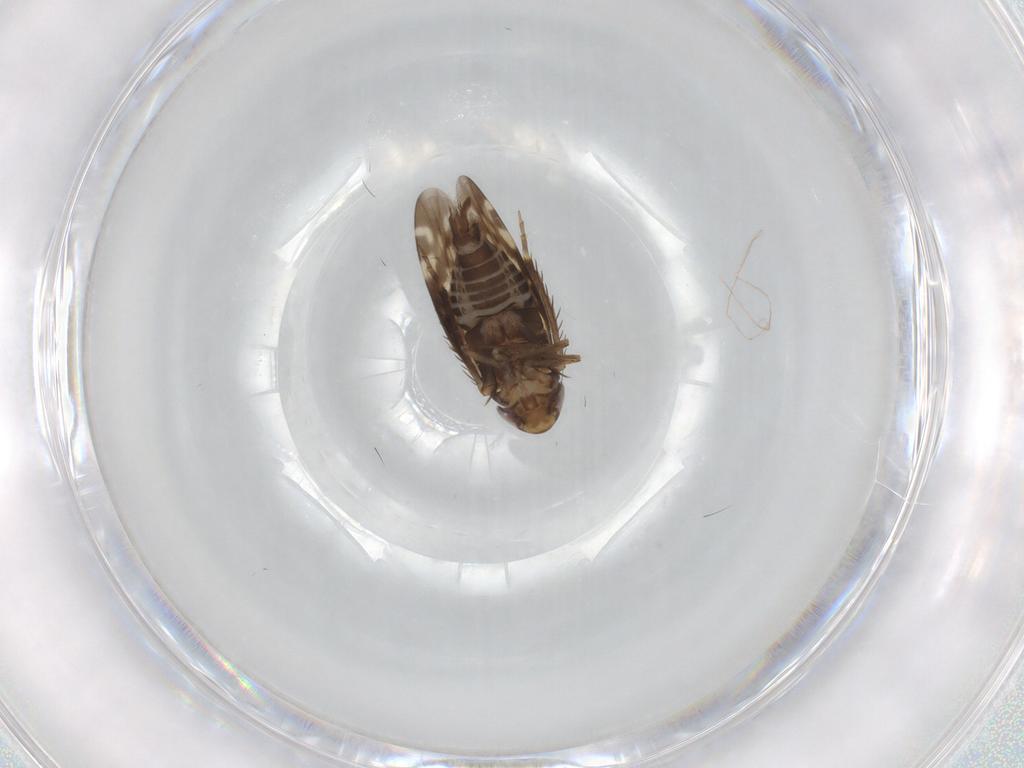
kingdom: Animalia
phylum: Arthropoda
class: Insecta
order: Hemiptera
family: Cicadellidae
